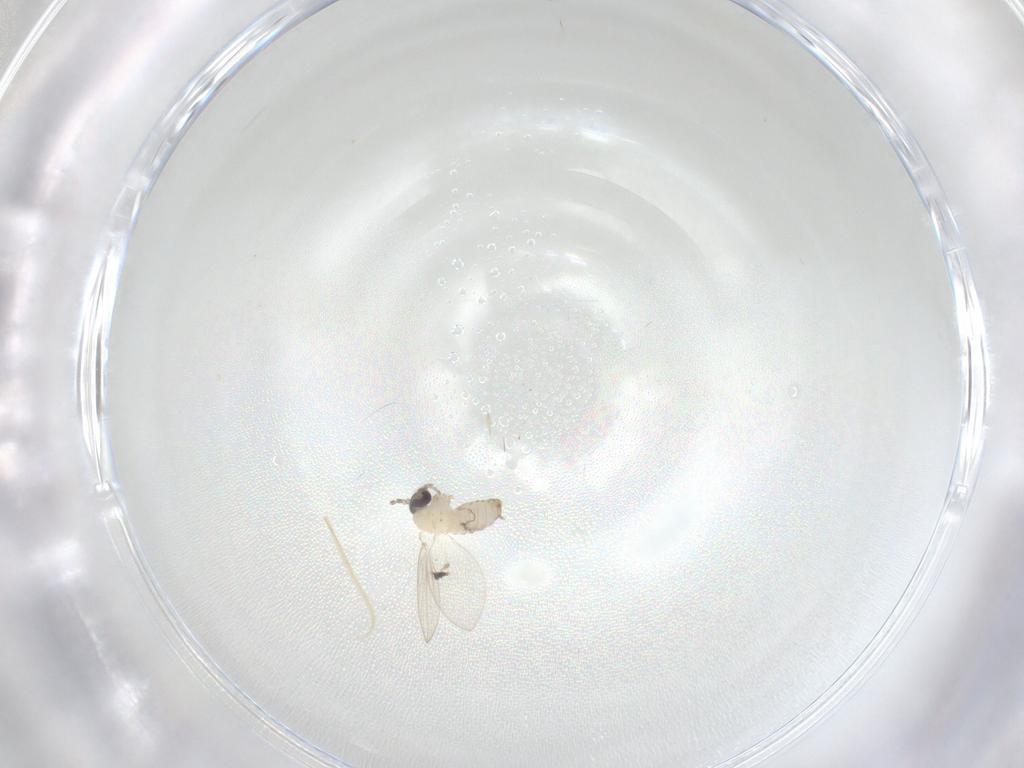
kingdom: Animalia
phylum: Arthropoda
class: Insecta
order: Diptera
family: Psychodidae
